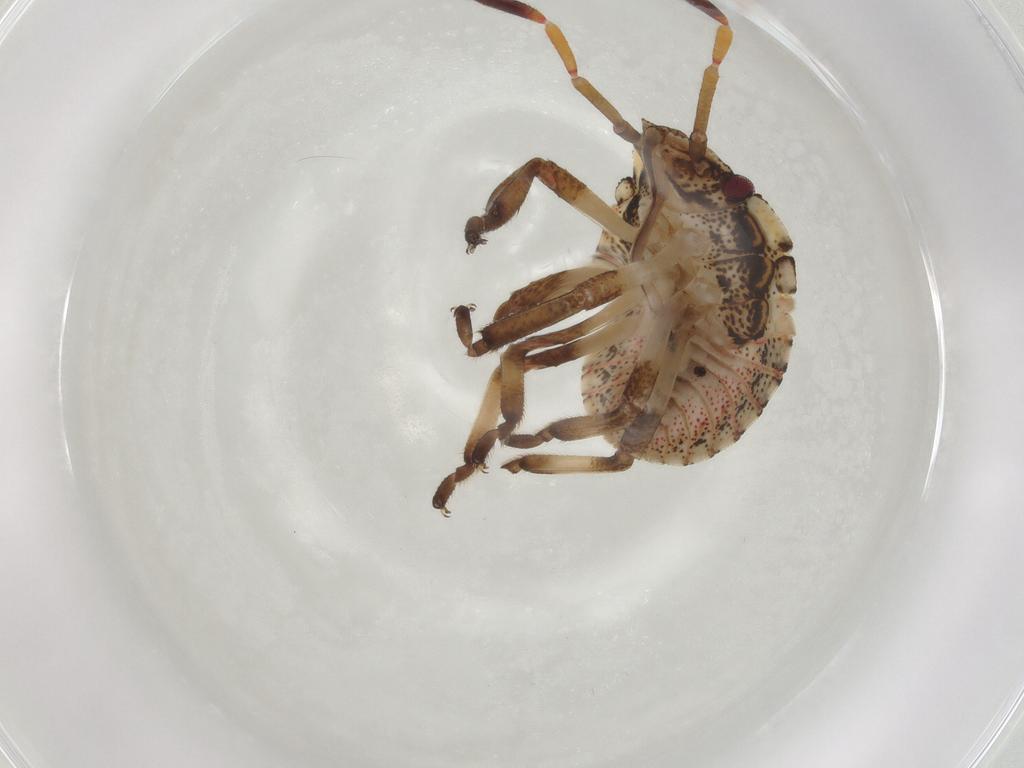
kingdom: Animalia
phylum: Arthropoda
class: Insecta
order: Hemiptera
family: Pentatomidae
